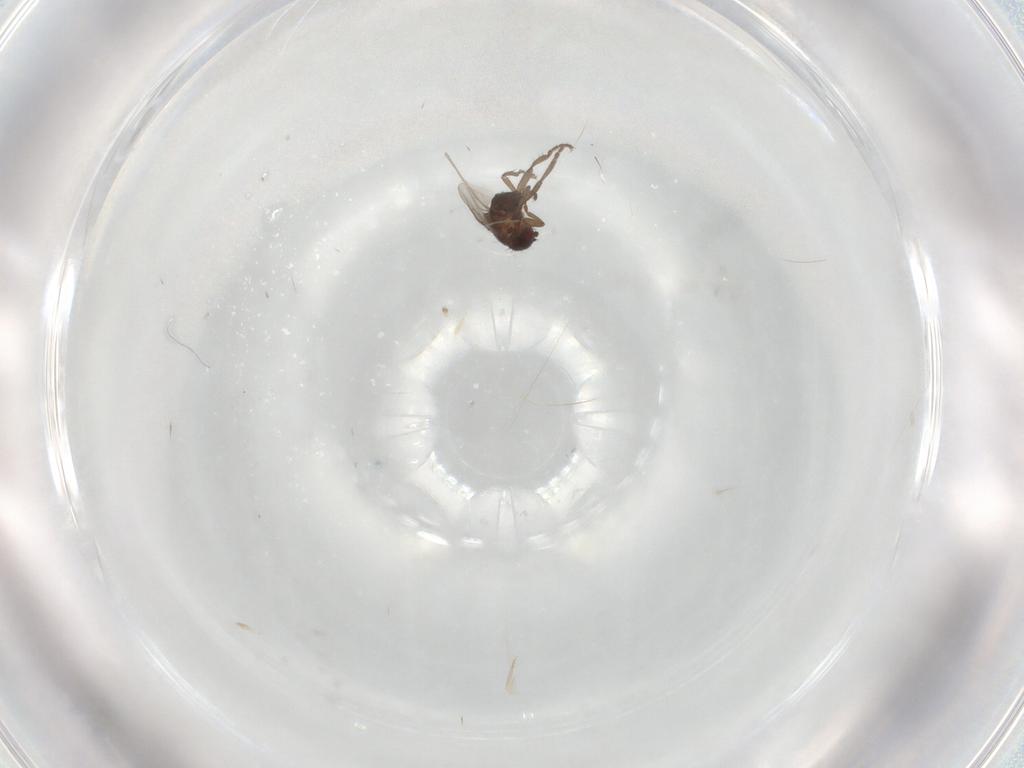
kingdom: Animalia
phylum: Arthropoda
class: Insecta
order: Diptera
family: Sphaeroceridae
